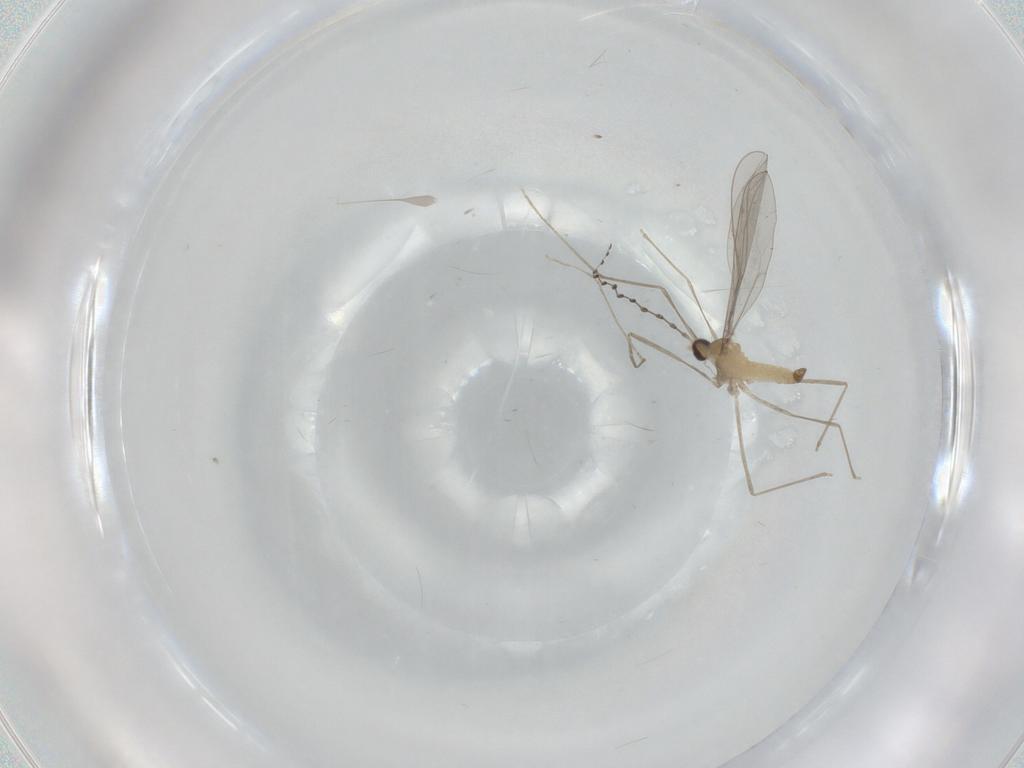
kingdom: Animalia
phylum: Arthropoda
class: Insecta
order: Diptera
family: Cecidomyiidae
